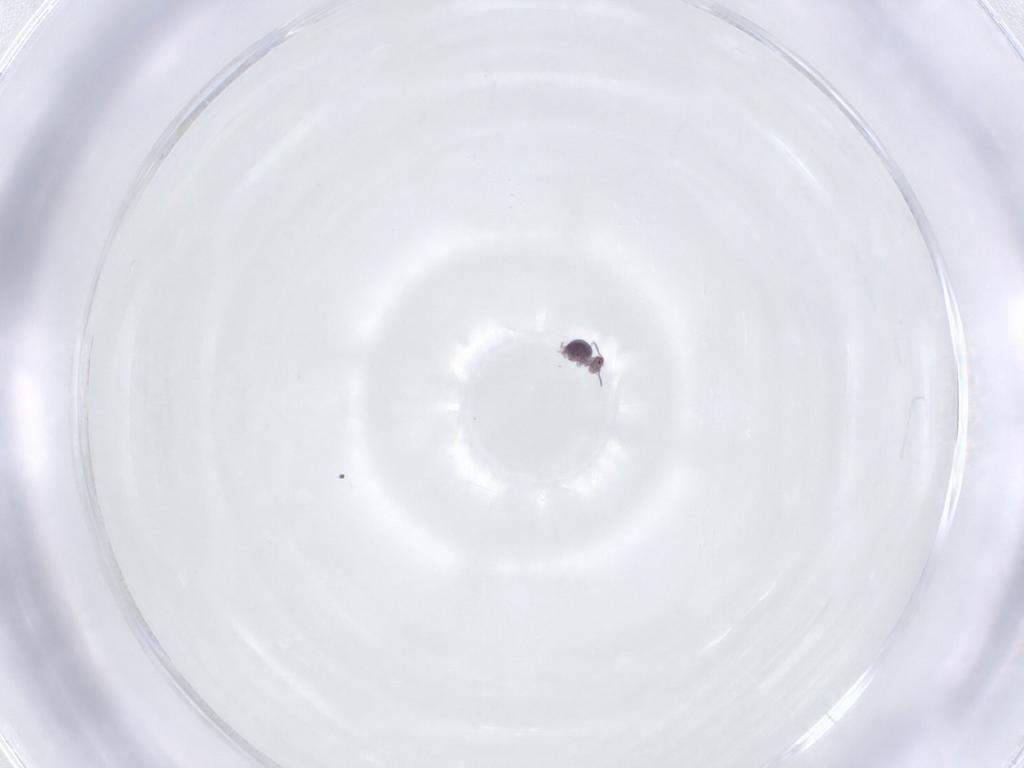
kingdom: Animalia
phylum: Arthropoda
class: Collembola
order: Symphypleona
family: Sminthurididae
